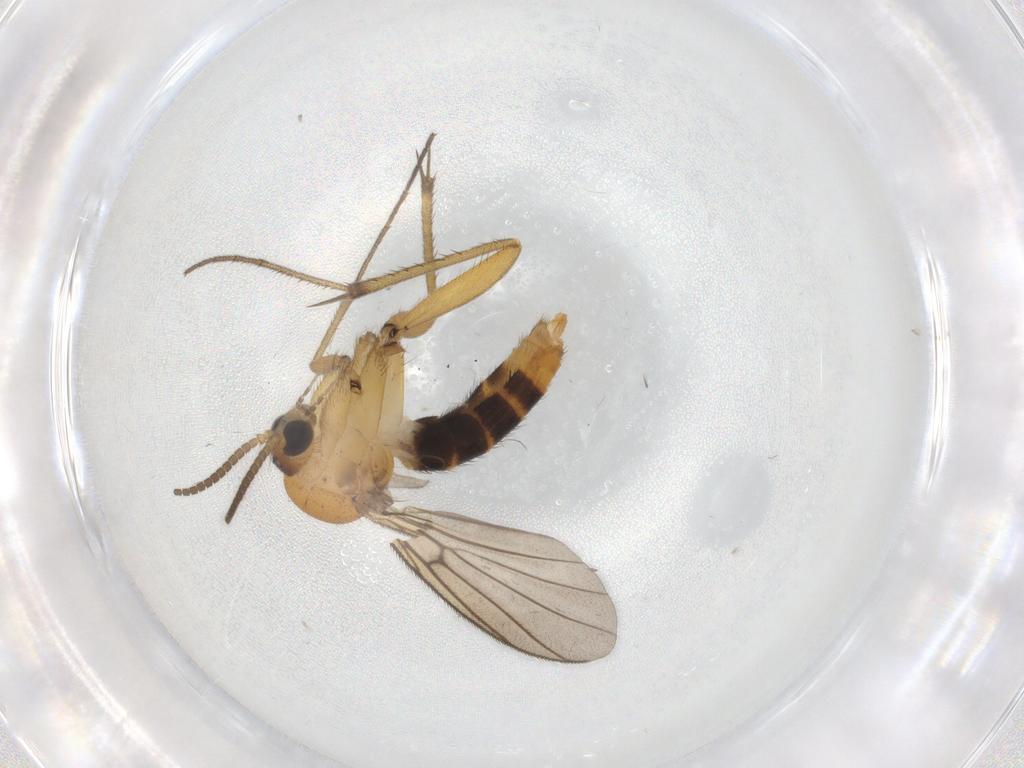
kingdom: Animalia
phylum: Arthropoda
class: Insecta
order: Diptera
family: Mycetophilidae
